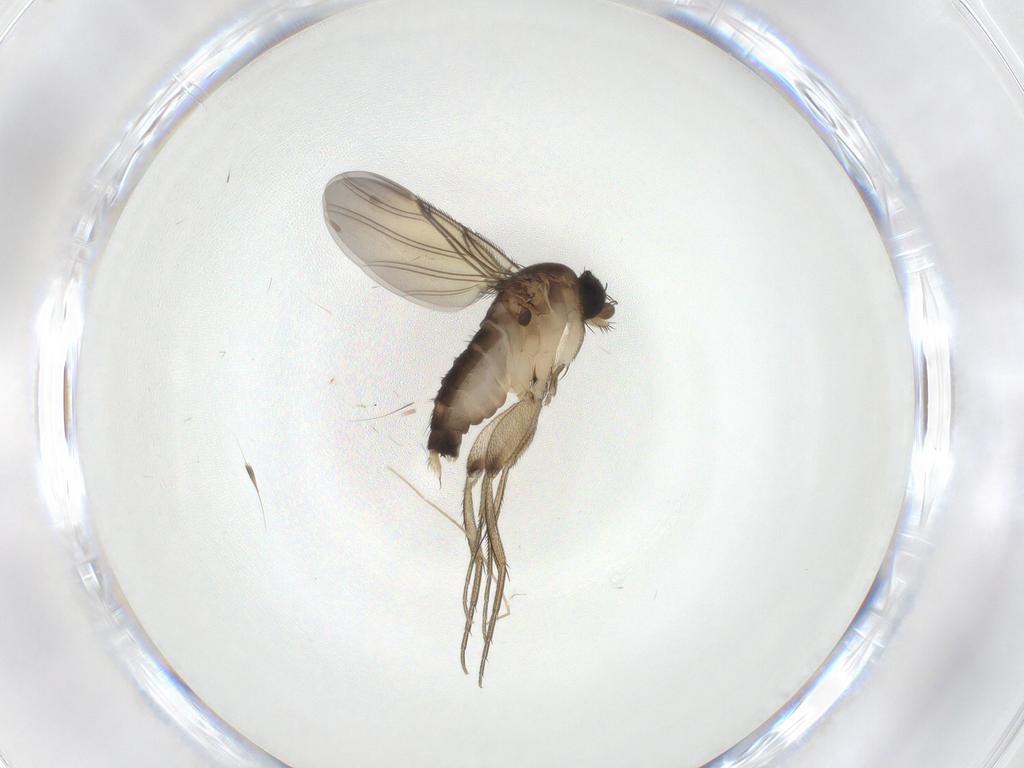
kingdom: Animalia
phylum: Arthropoda
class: Insecta
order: Diptera
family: Phoridae
